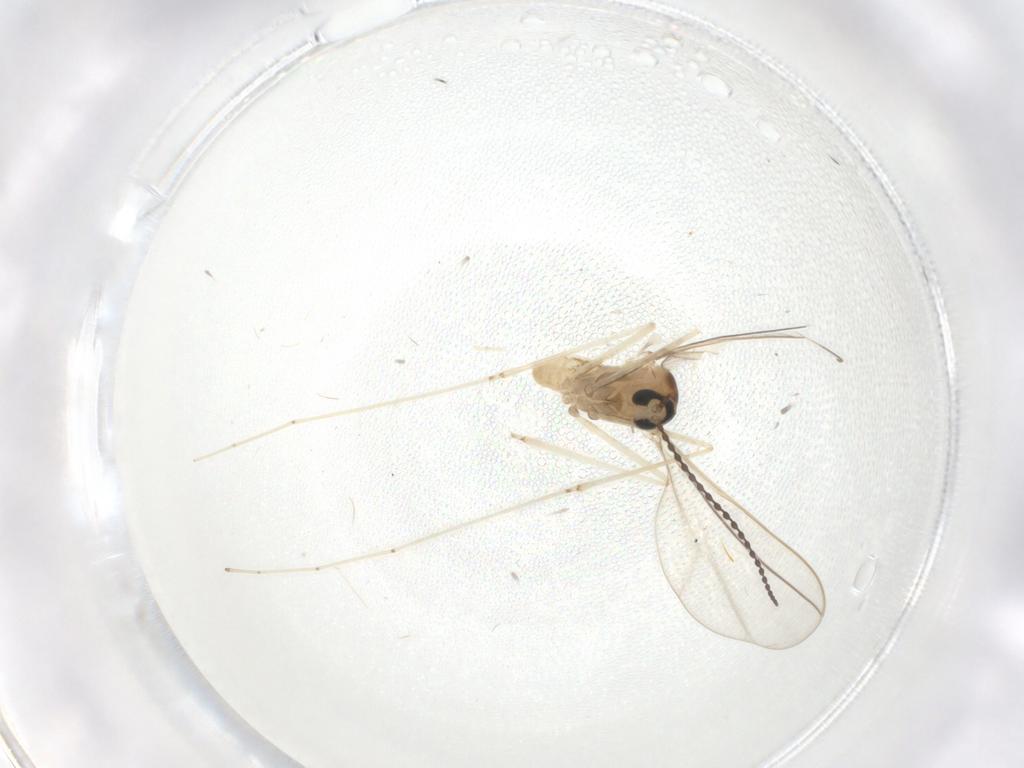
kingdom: Animalia
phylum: Arthropoda
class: Insecta
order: Diptera
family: Cecidomyiidae
